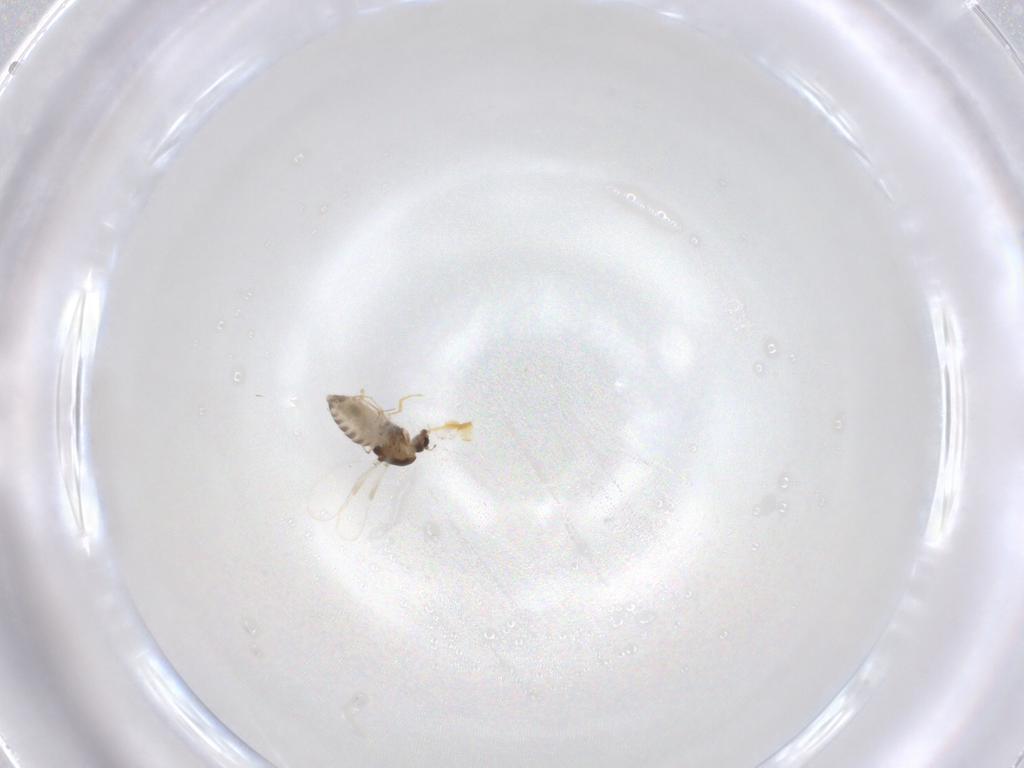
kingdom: Animalia
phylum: Arthropoda
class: Insecta
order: Diptera
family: Chironomidae
